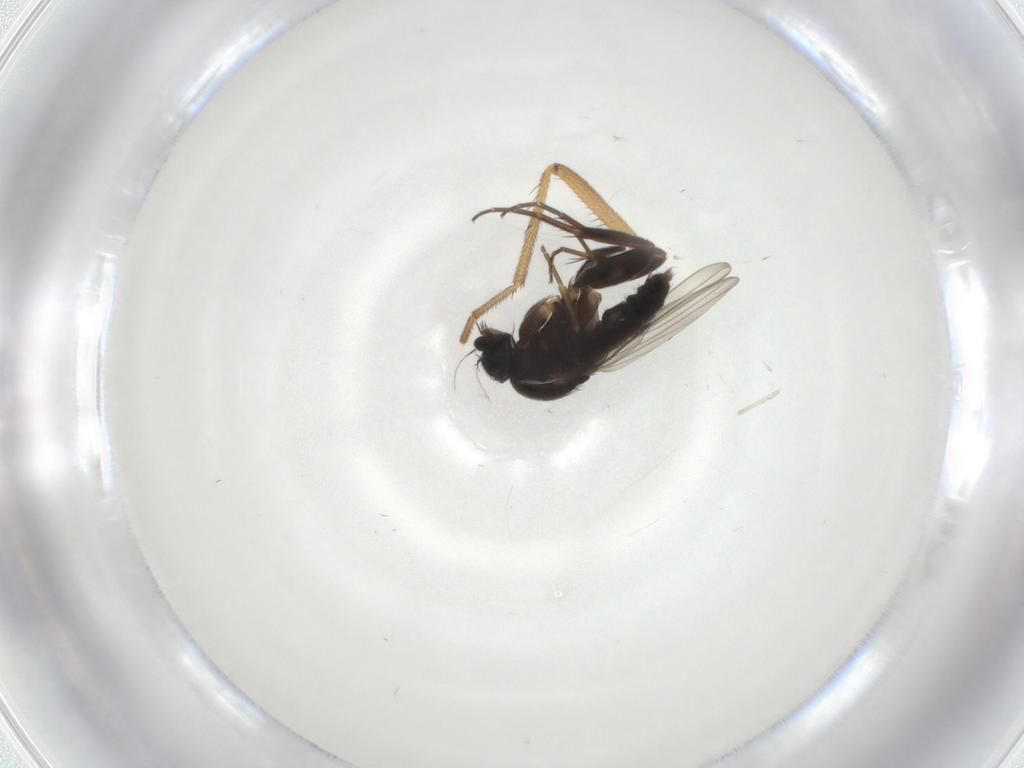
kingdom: Animalia
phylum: Arthropoda
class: Insecta
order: Diptera
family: Phoridae
